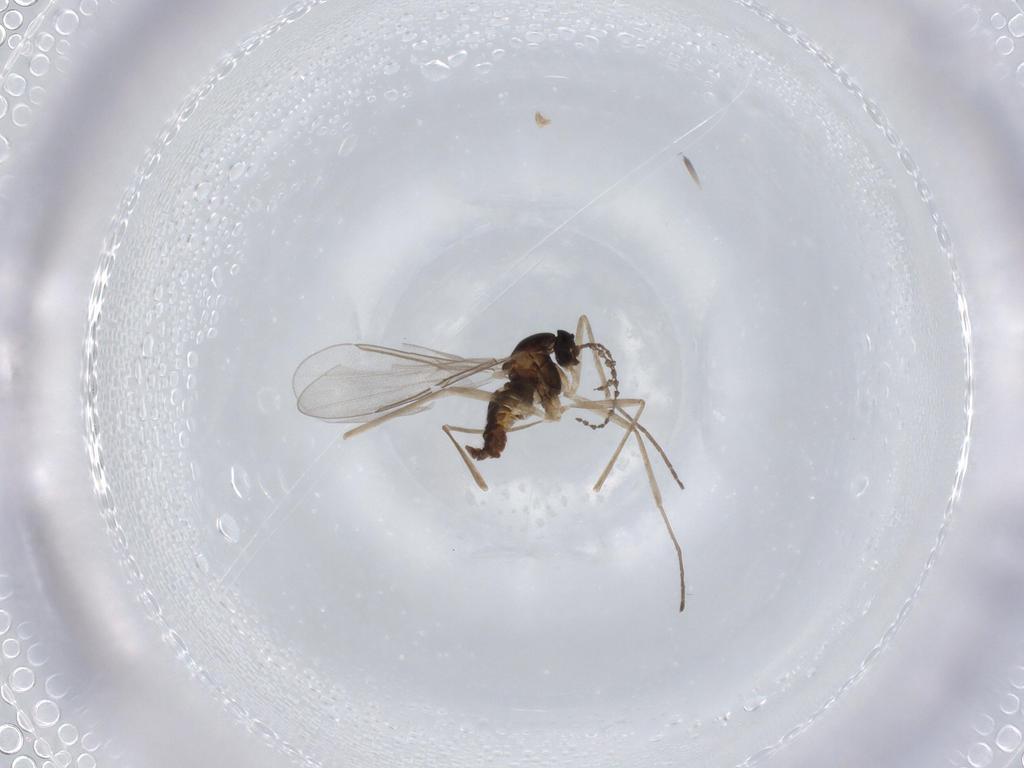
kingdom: Animalia
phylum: Arthropoda
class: Insecta
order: Diptera
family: Cecidomyiidae
